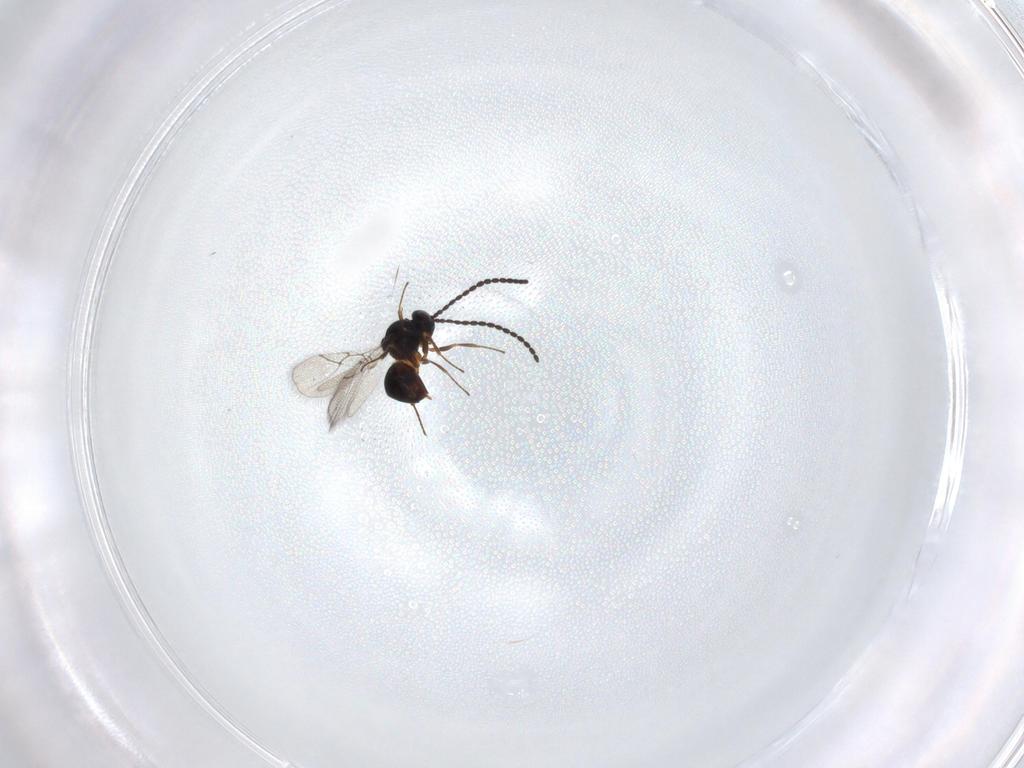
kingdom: Animalia
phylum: Arthropoda
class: Insecta
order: Hymenoptera
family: Figitidae
